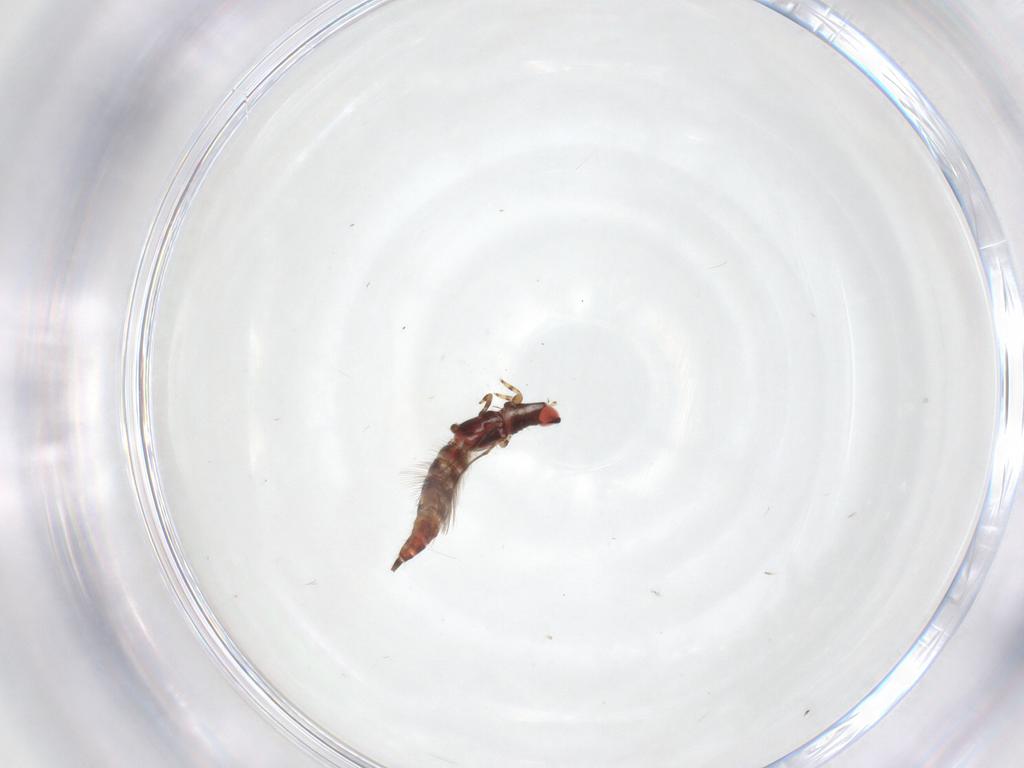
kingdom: Animalia
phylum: Arthropoda
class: Insecta
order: Thysanoptera
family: Phlaeothripidae
